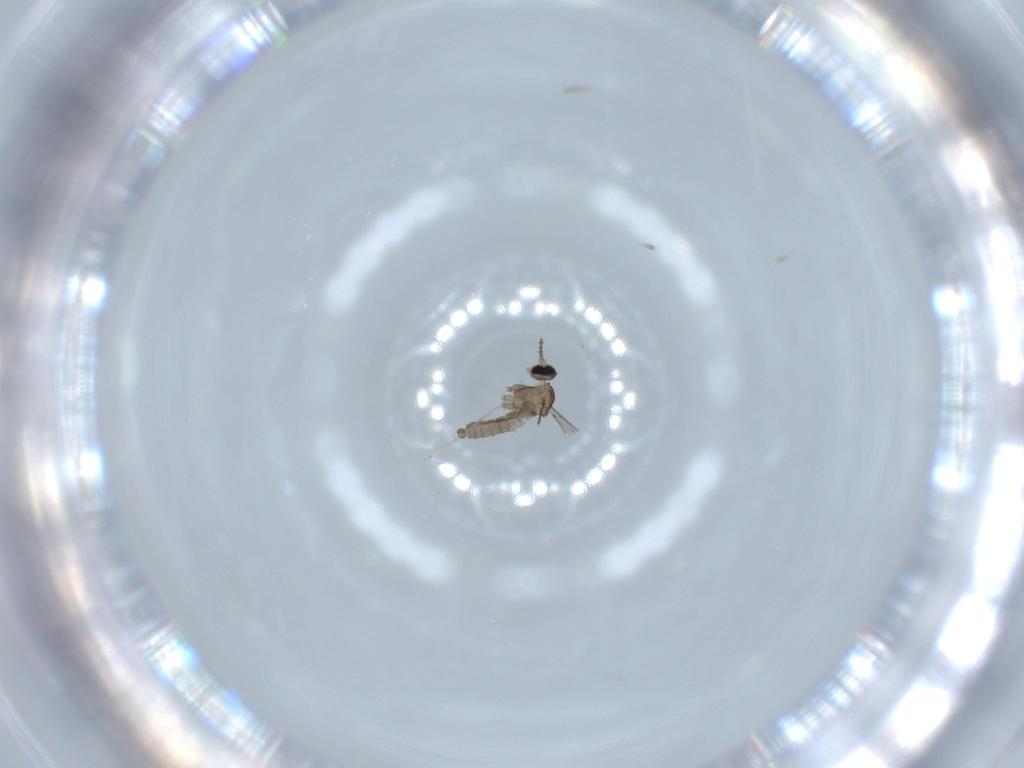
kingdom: Animalia
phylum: Arthropoda
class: Insecta
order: Diptera
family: Cecidomyiidae
